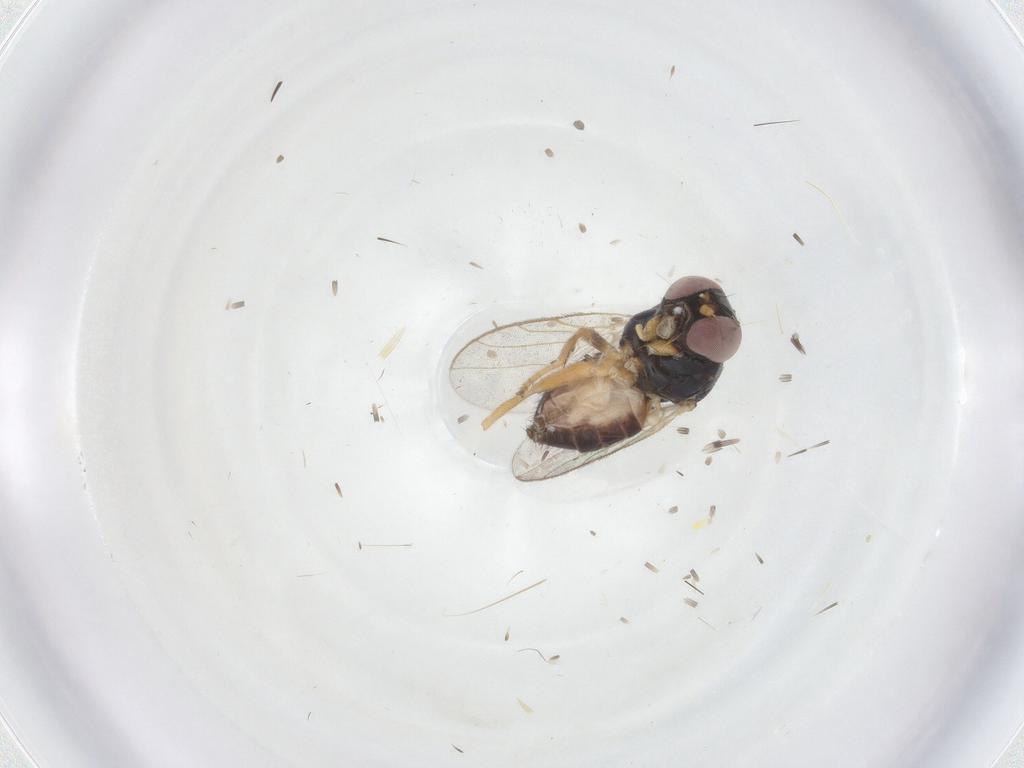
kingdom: Animalia
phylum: Arthropoda
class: Insecta
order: Diptera
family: Chloropidae
